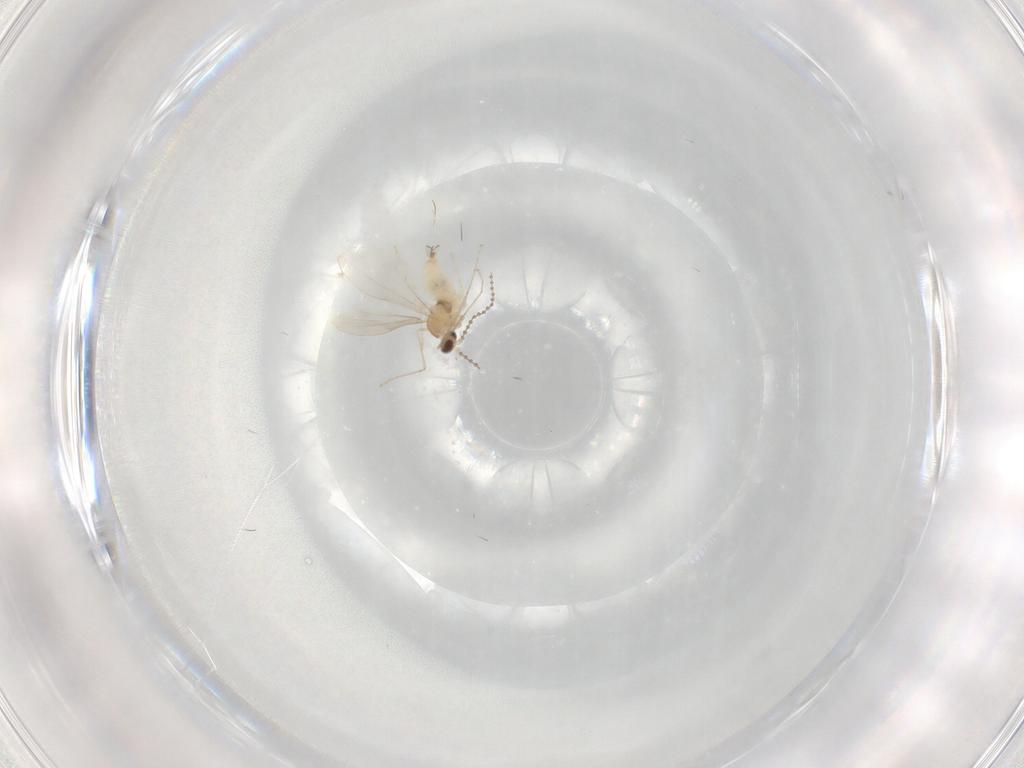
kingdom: Animalia
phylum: Arthropoda
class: Insecta
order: Diptera
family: Cecidomyiidae
